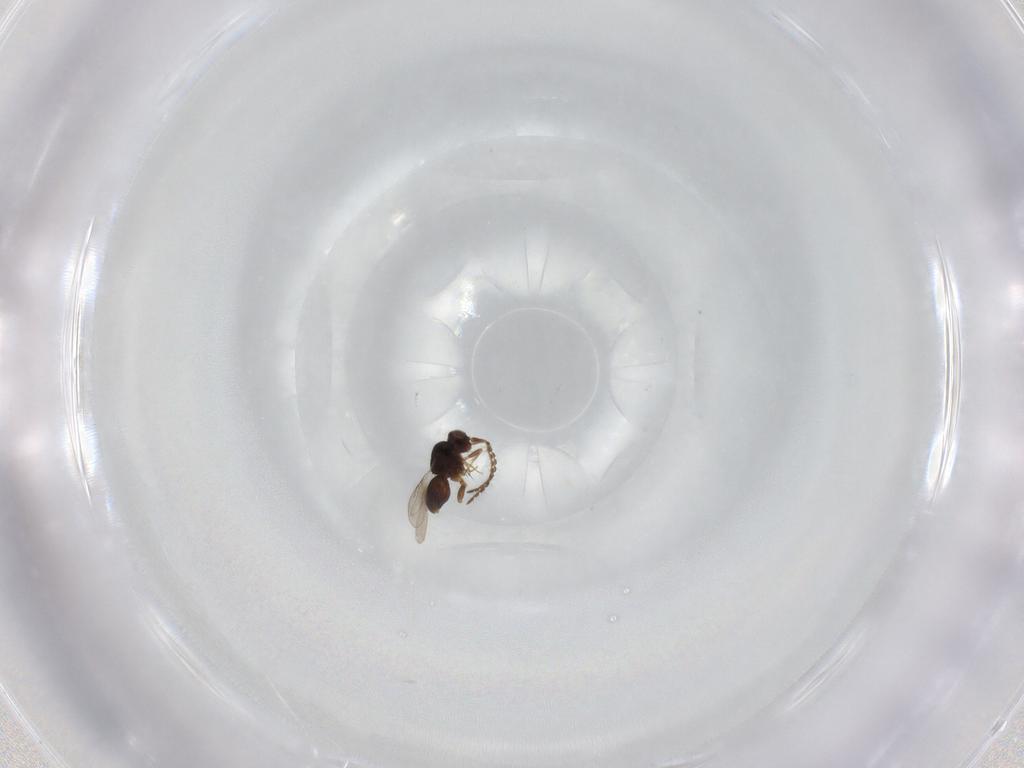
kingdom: Animalia
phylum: Arthropoda
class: Insecta
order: Hymenoptera
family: Ceraphronidae
